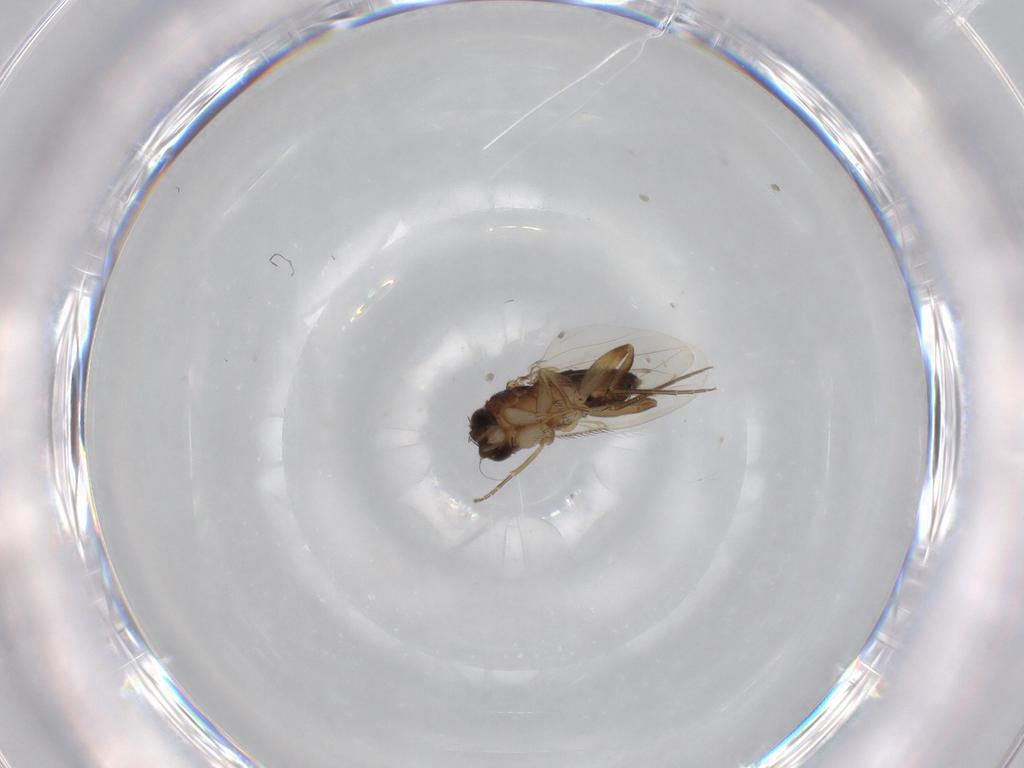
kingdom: Animalia
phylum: Arthropoda
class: Insecta
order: Diptera
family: Phoridae
